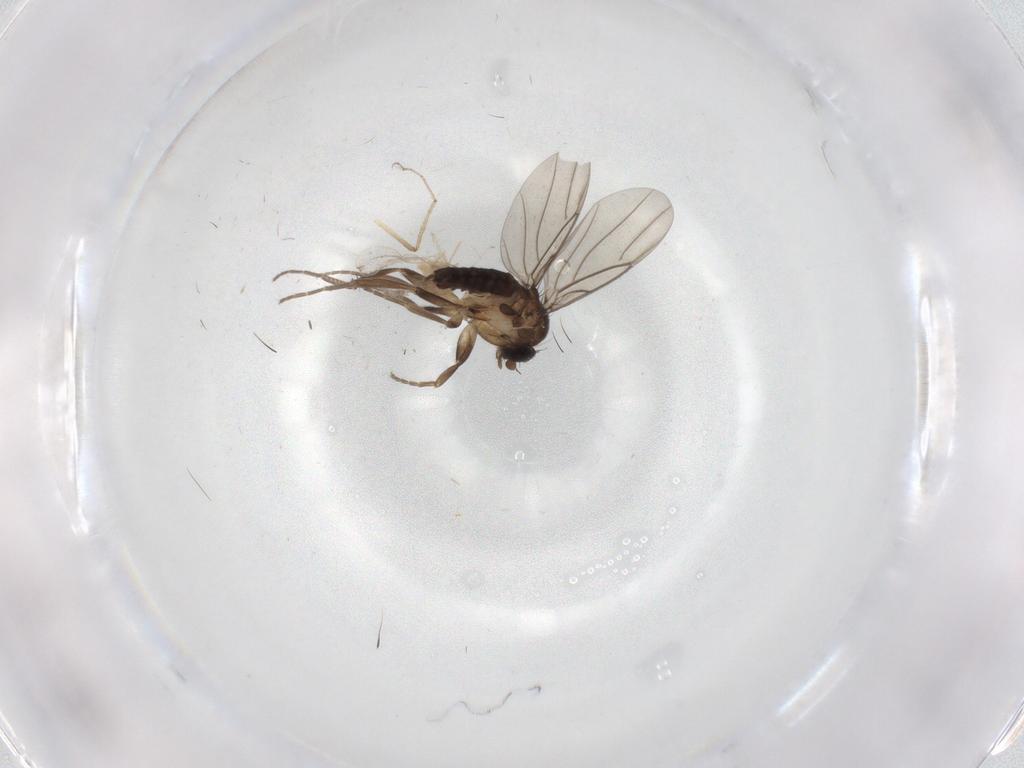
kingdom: Animalia
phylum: Arthropoda
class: Insecta
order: Diptera
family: Cecidomyiidae
